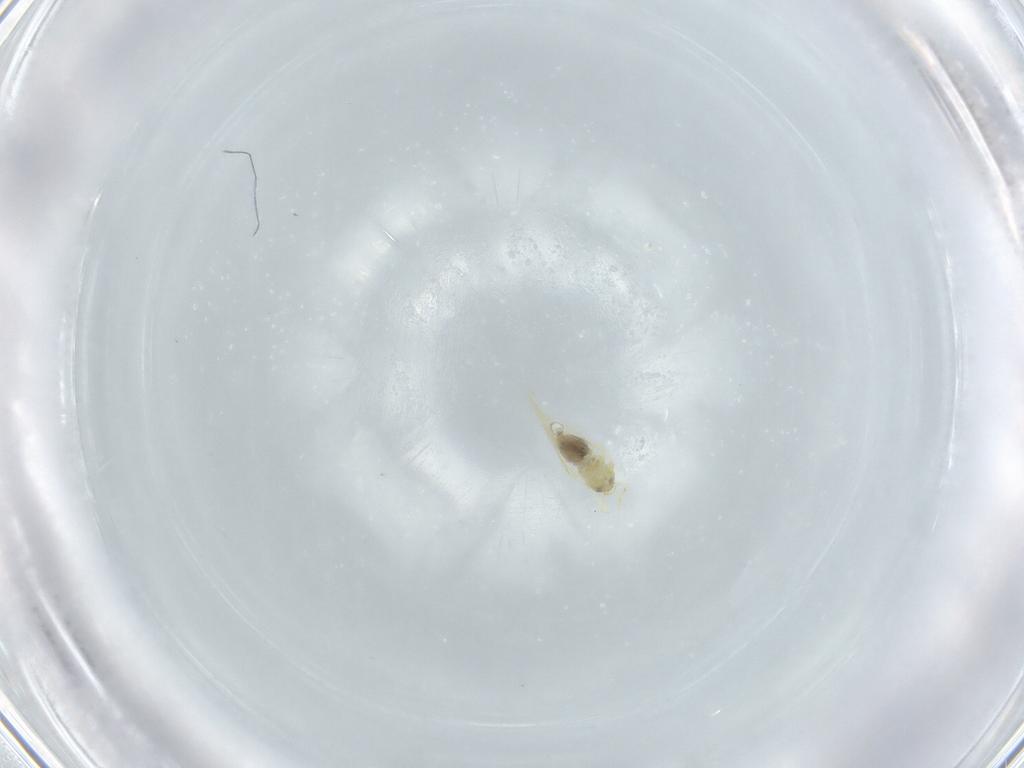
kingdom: Animalia
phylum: Arthropoda
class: Insecta
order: Hemiptera
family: Aleyrodidae
